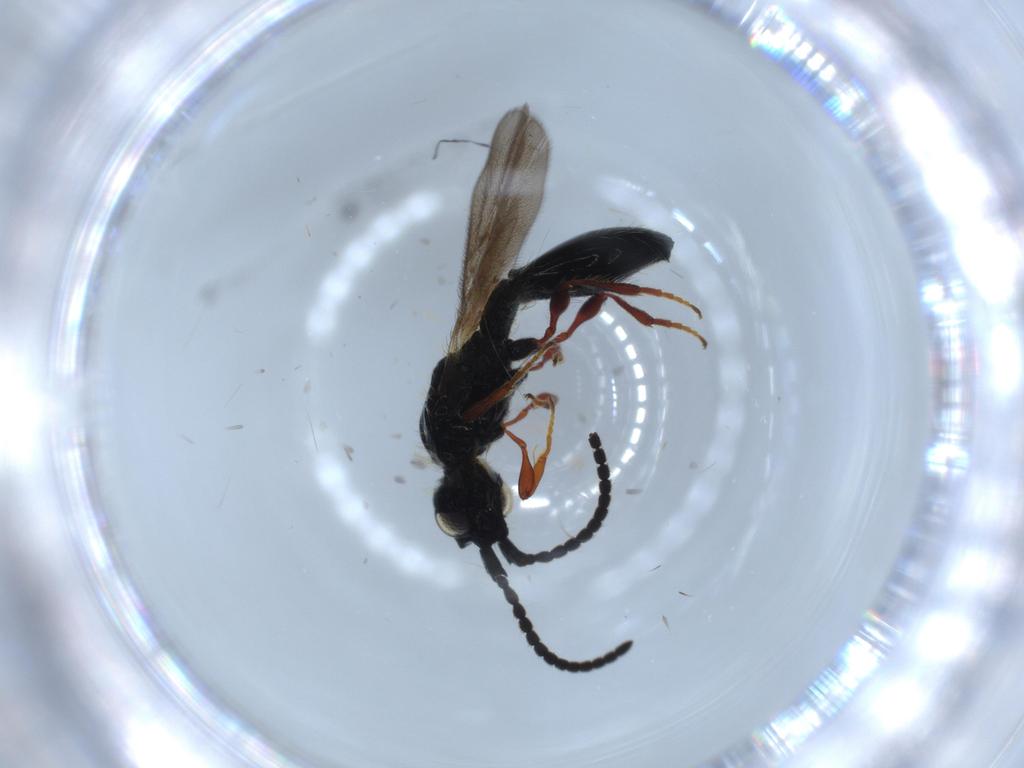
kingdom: Animalia
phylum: Arthropoda
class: Insecta
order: Hymenoptera
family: Diapriidae
